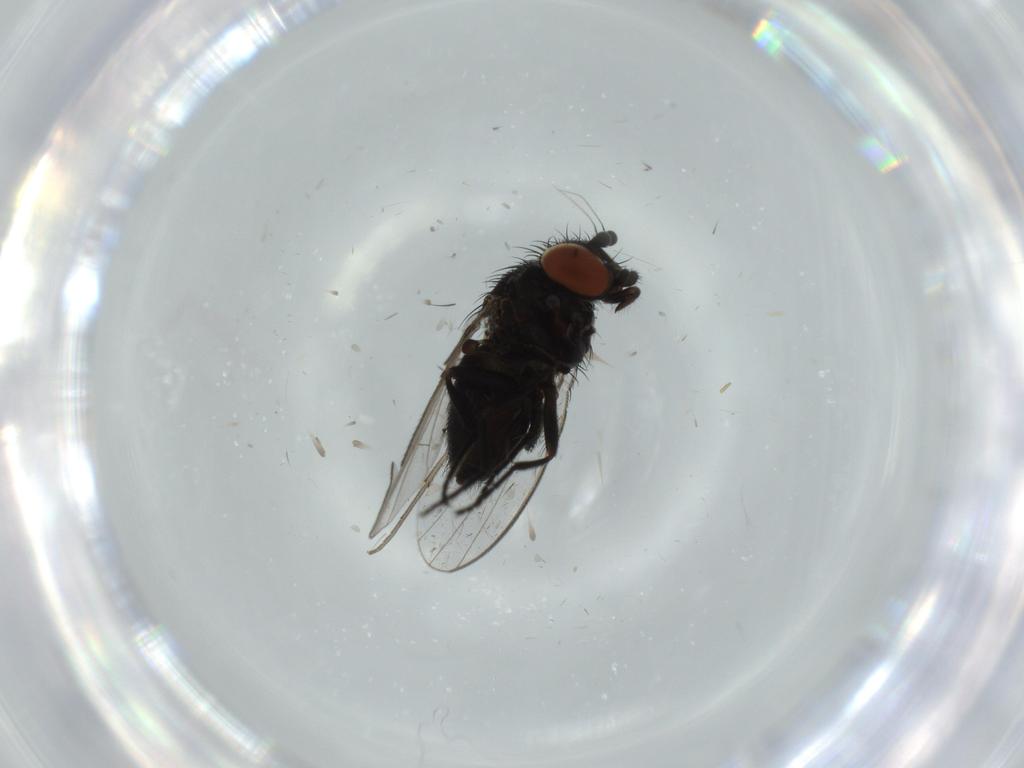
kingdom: Animalia
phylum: Arthropoda
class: Insecta
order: Diptera
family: Milichiidae
